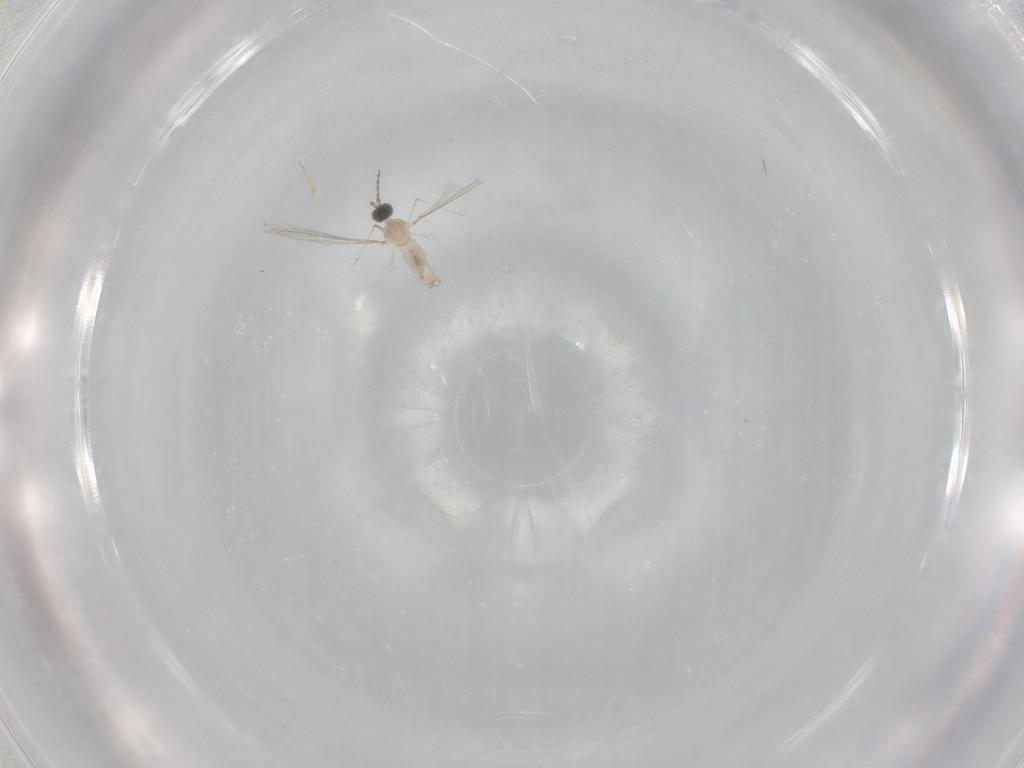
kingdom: Animalia
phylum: Arthropoda
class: Insecta
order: Diptera
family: Cecidomyiidae
